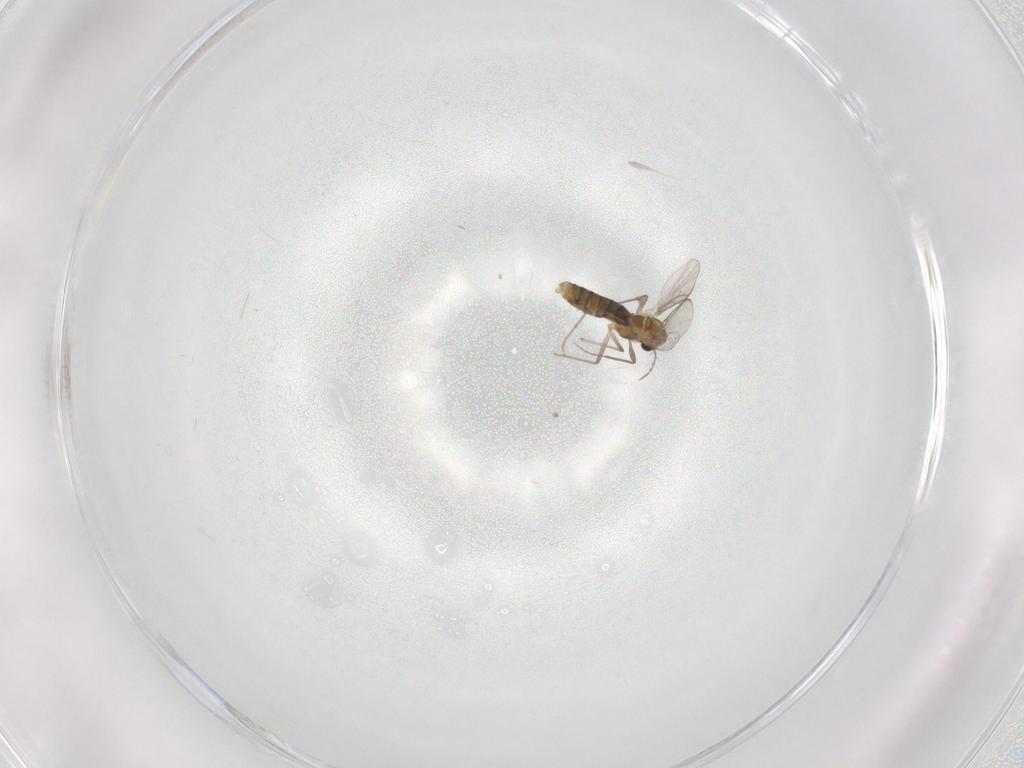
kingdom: Animalia
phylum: Arthropoda
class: Insecta
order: Diptera
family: Chironomidae
